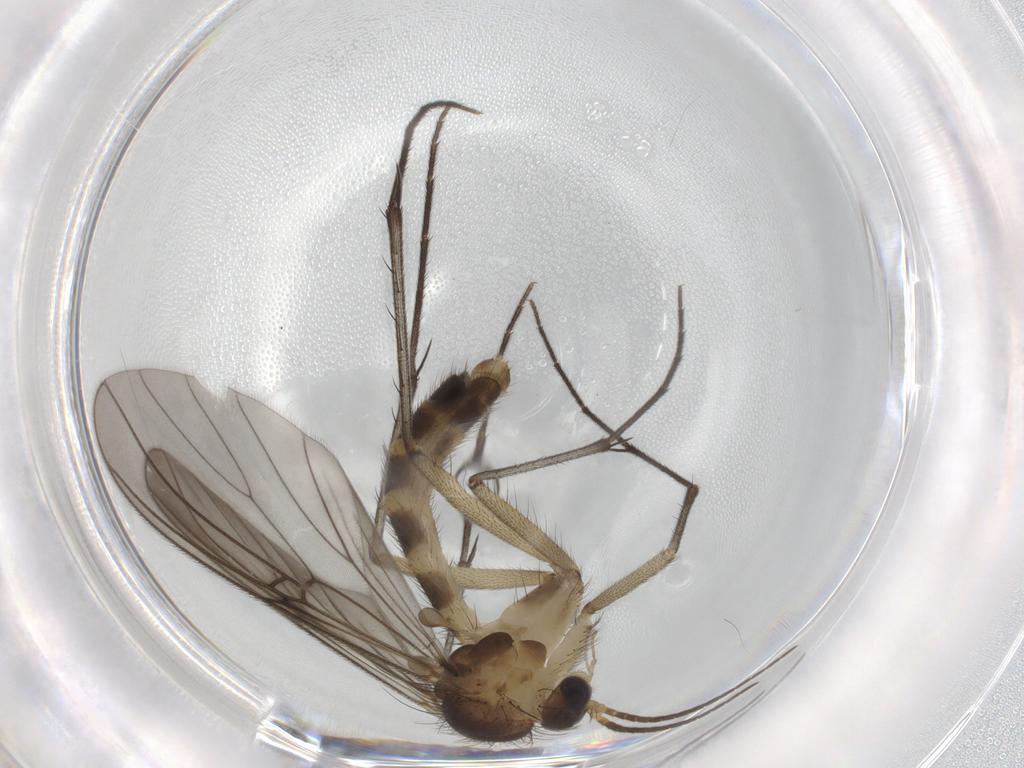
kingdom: Animalia
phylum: Arthropoda
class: Insecta
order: Diptera
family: Mycetophilidae
